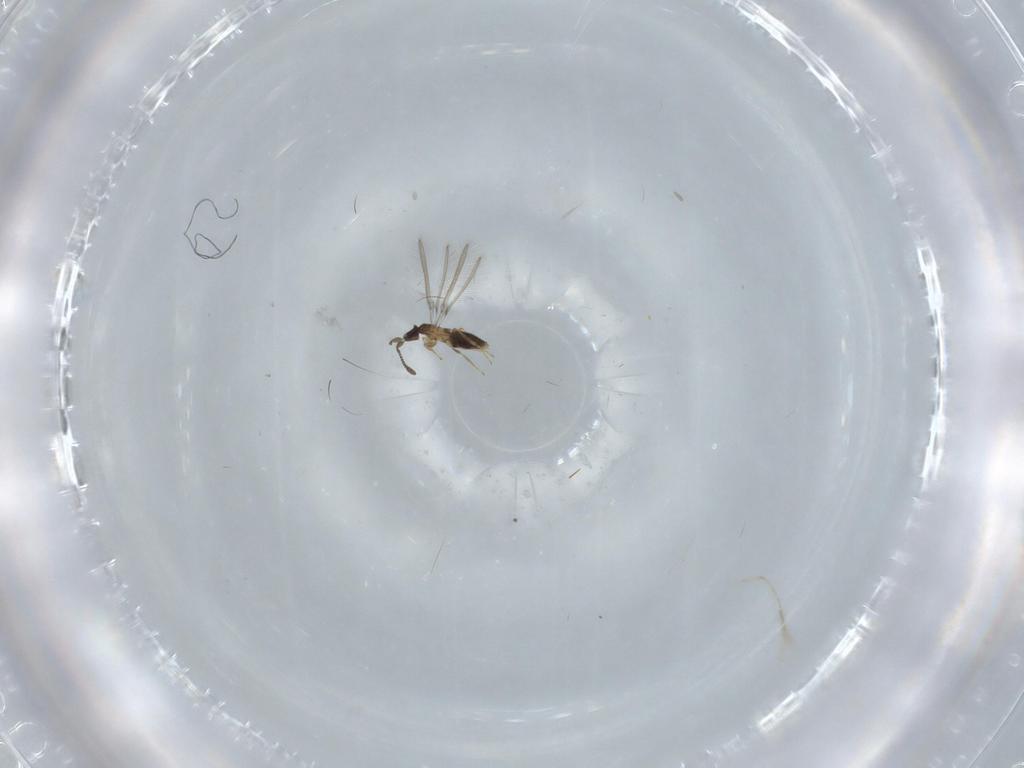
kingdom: Animalia
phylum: Arthropoda
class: Insecta
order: Hymenoptera
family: Mymaridae
